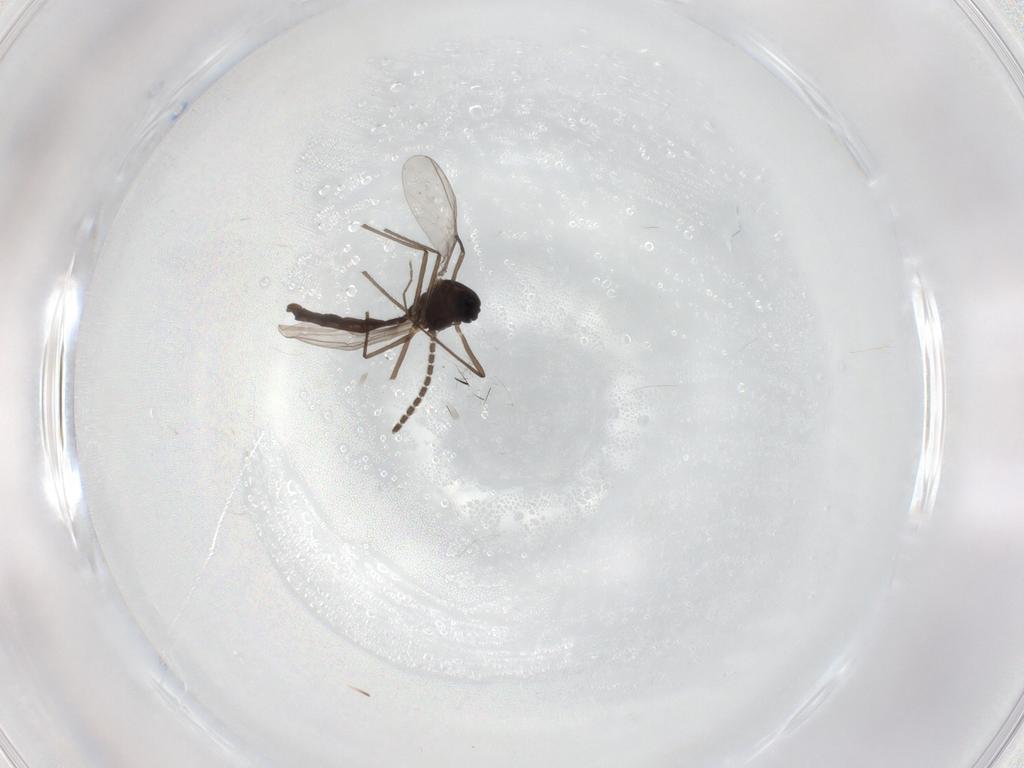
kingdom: Animalia
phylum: Arthropoda
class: Insecta
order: Diptera
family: Chironomidae
